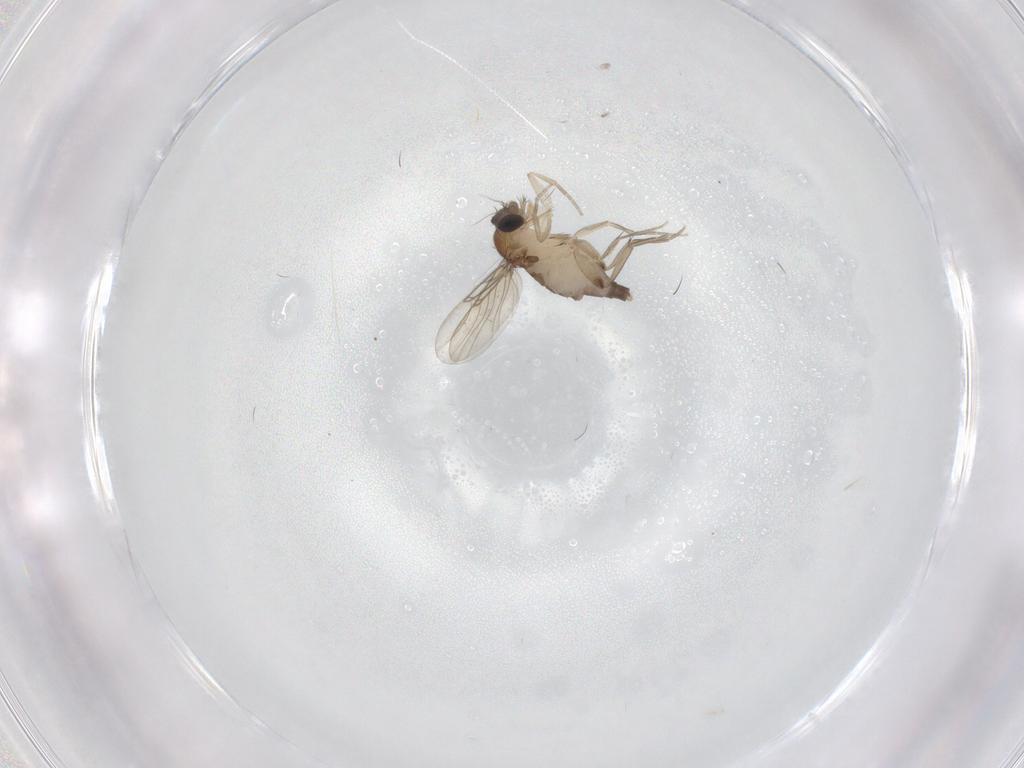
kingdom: Animalia
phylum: Arthropoda
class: Insecta
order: Diptera
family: Phoridae
